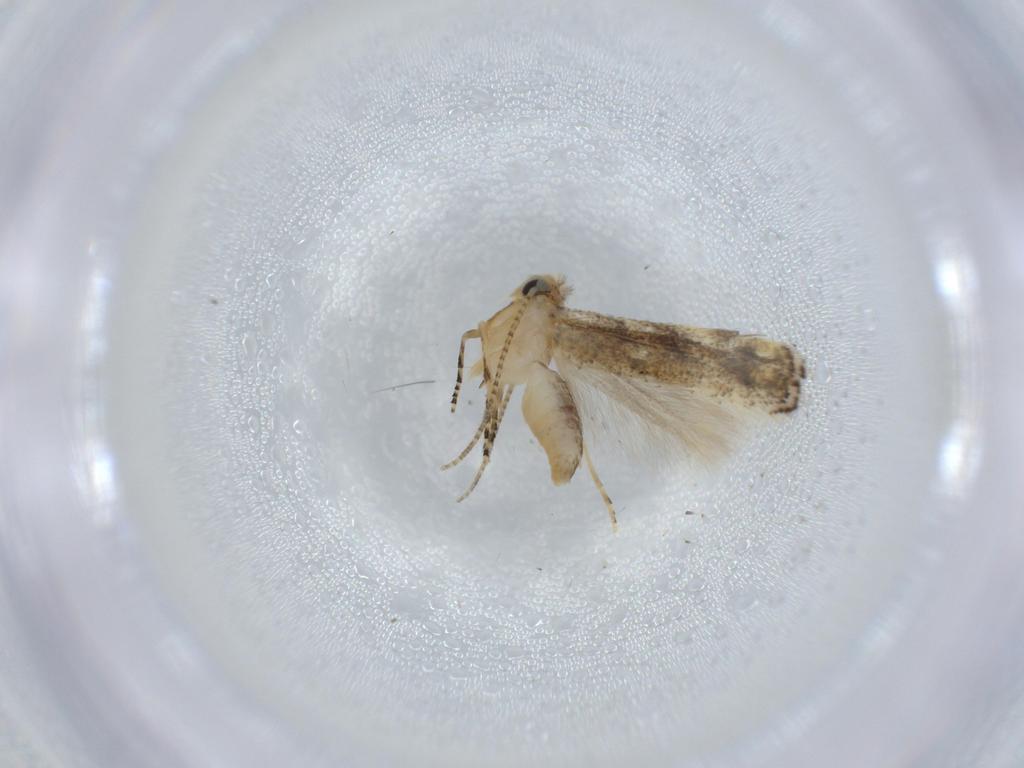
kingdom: Animalia
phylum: Arthropoda
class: Insecta
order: Lepidoptera
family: Bucculatricidae
